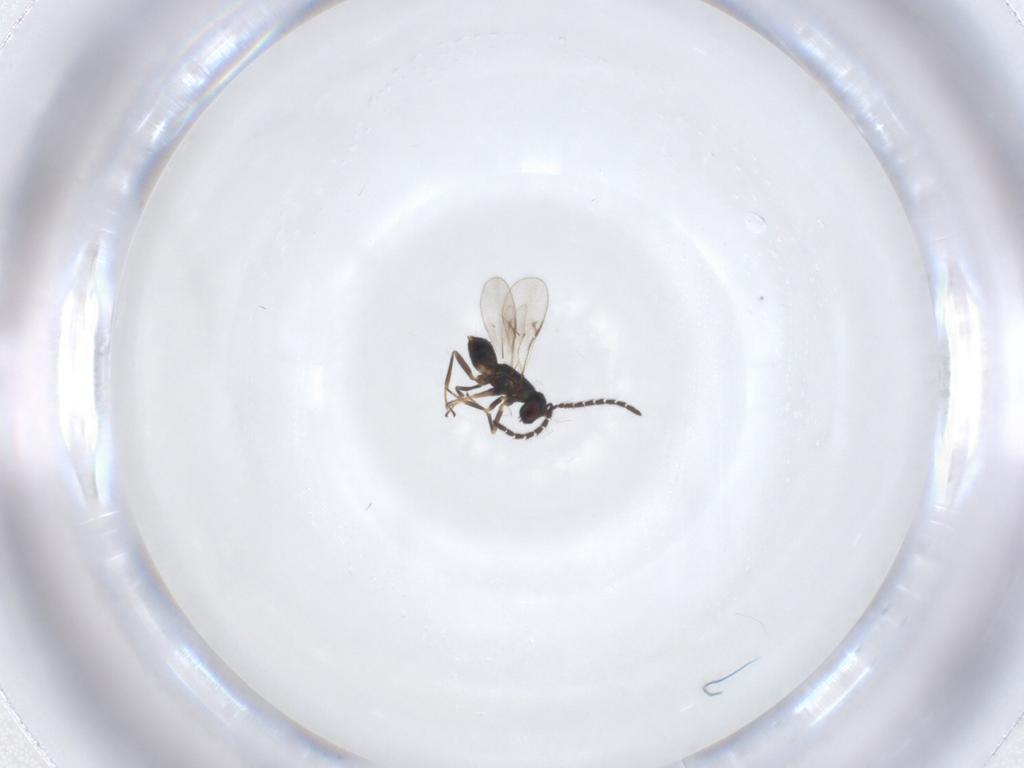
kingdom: Animalia
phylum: Arthropoda
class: Insecta
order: Hymenoptera
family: Encyrtidae
